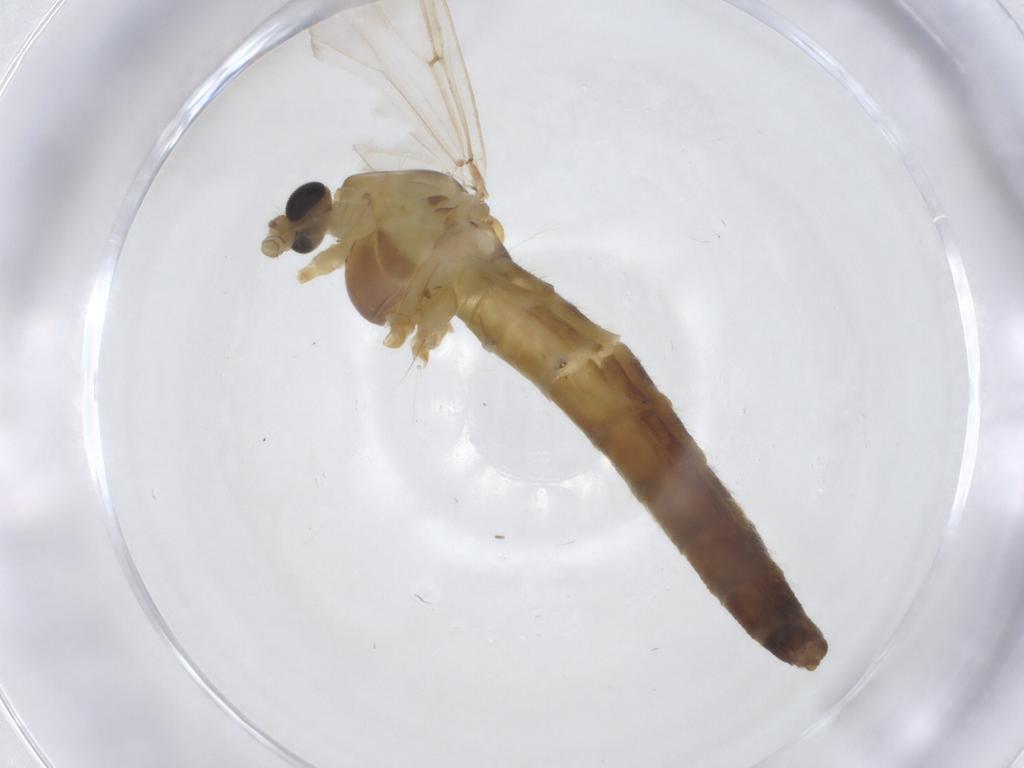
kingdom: Animalia
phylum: Arthropoda
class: Insecta
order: Diptera
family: Chironomidae
